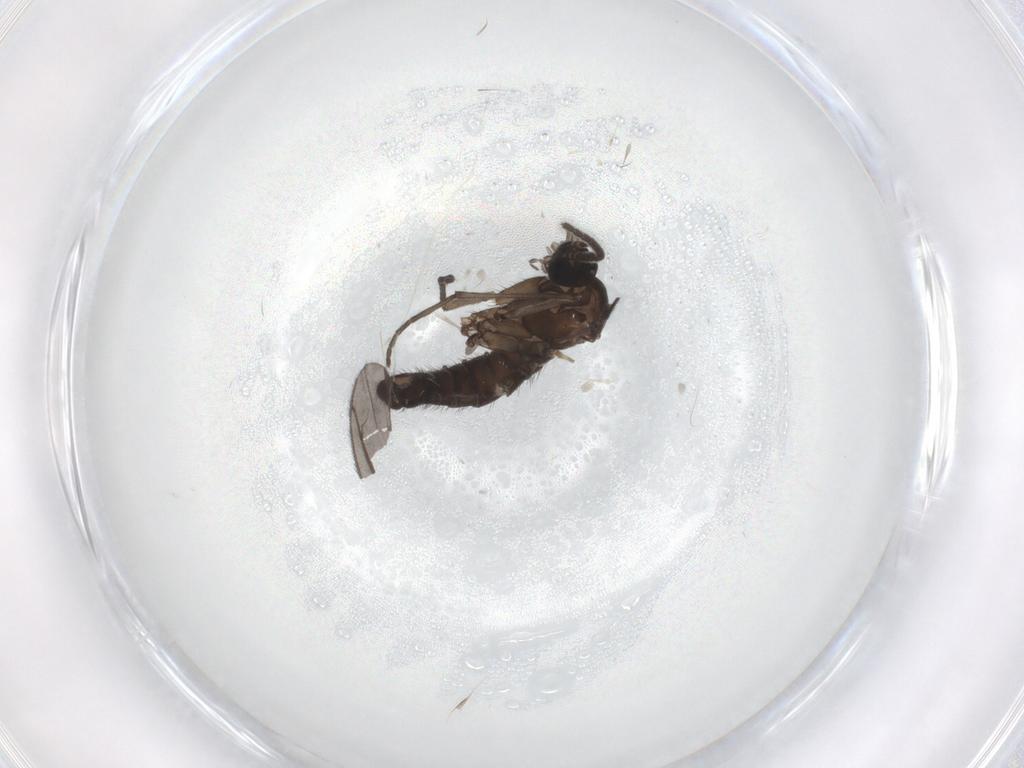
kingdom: Animalia
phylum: Arthropoda
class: Insecta
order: Diptera
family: Sciaridae
